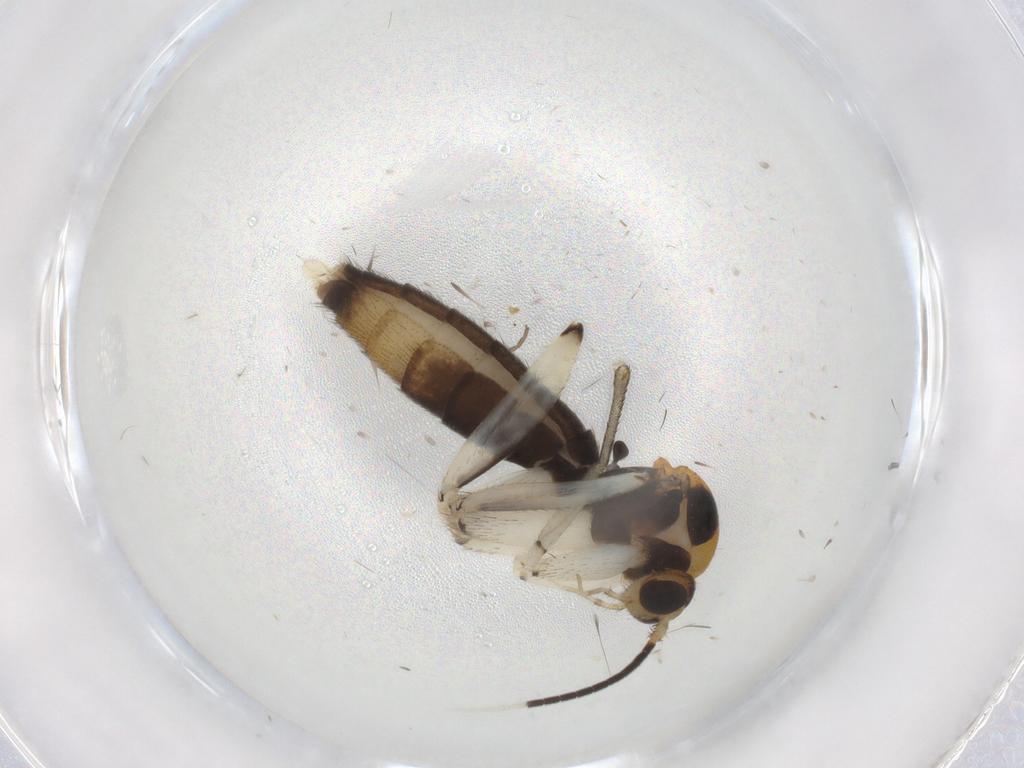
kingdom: Animalia
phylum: Arthropoda
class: Insecta
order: Diptera
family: Mycetophilidae
